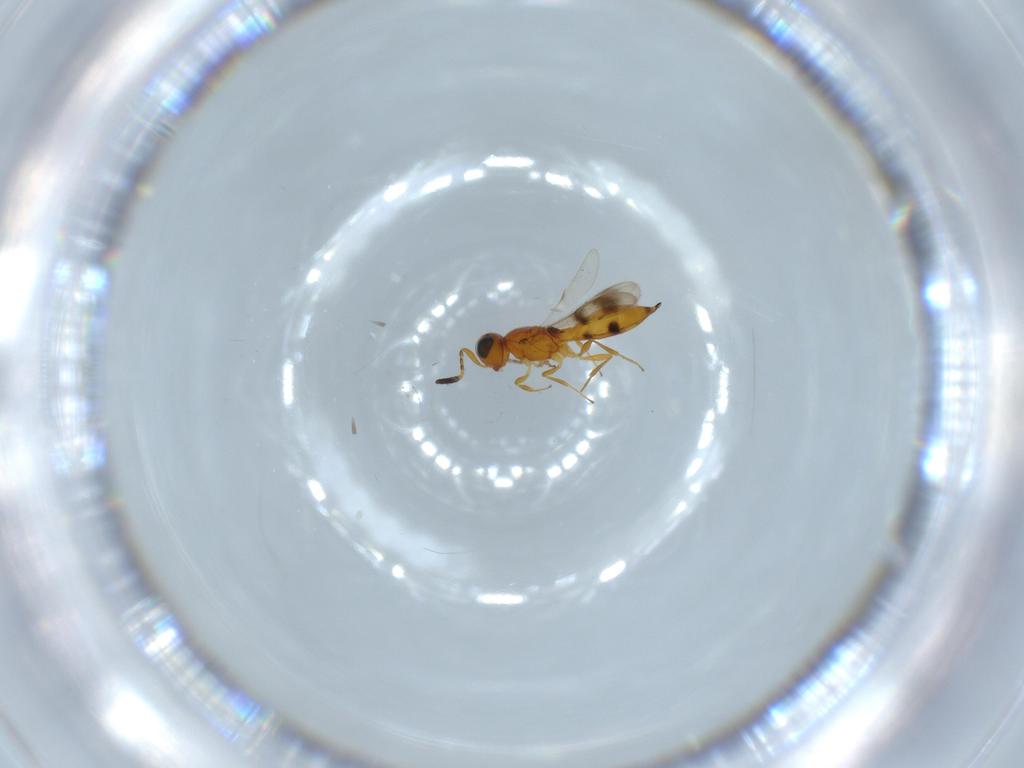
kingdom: Animalia
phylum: Arthropoda
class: Insecta
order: Hymenoptera
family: Scelionidae
